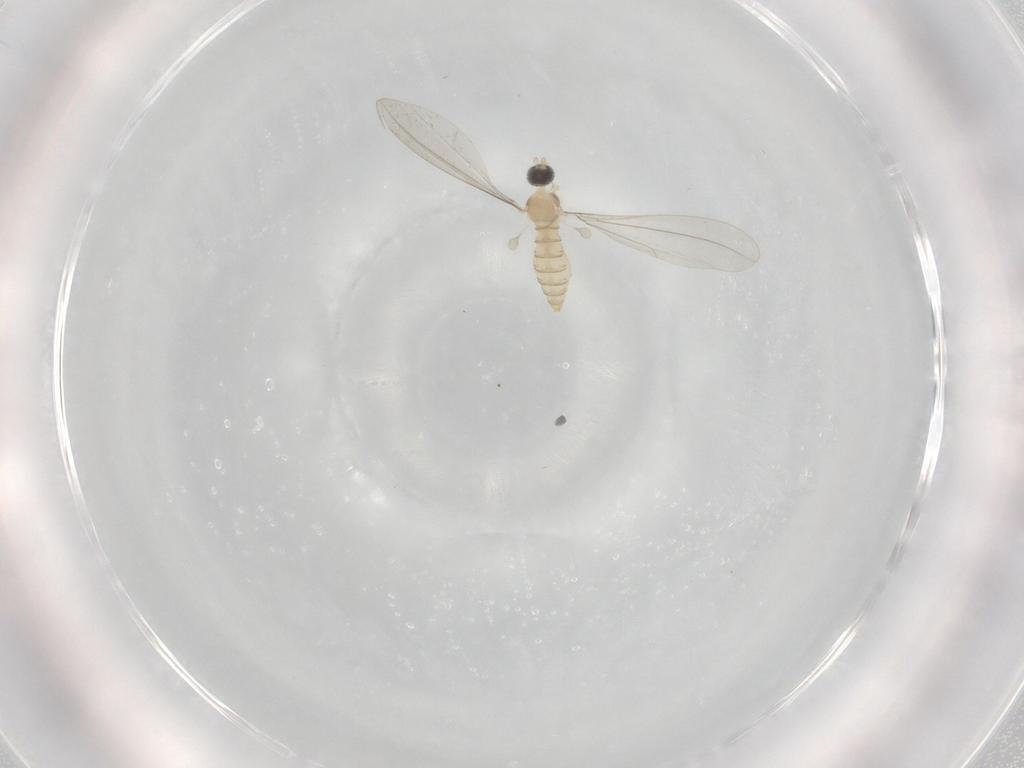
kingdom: Animalia
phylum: Arthropoda
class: Insecta
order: Diptera
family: Cecidomyiidae
